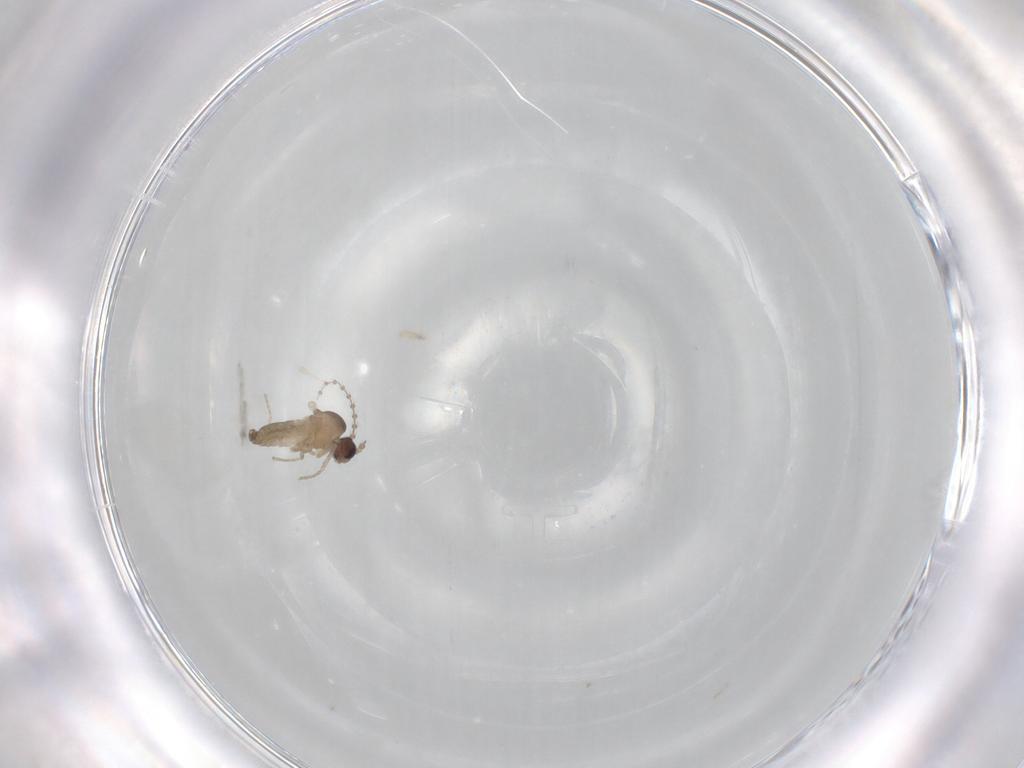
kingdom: Animalia
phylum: Arthropoda
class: Insecta
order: Diptera
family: Cecidomyiidae
